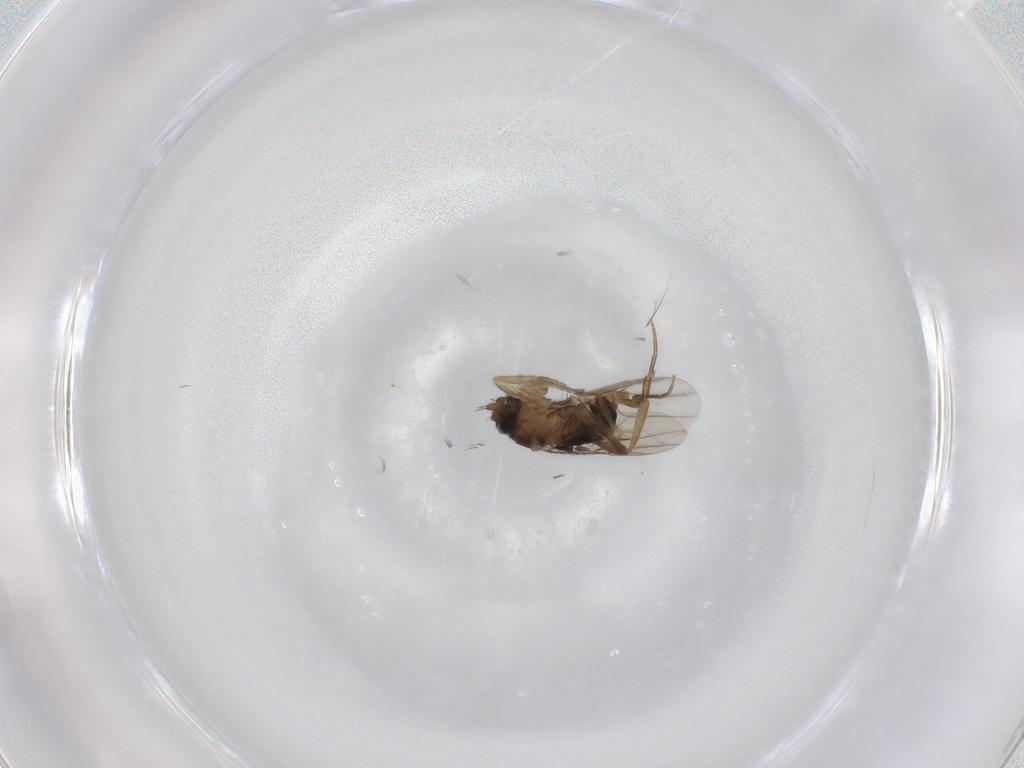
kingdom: Animalia
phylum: Arthropoda
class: Insecta
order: Diptera
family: Phoridae
